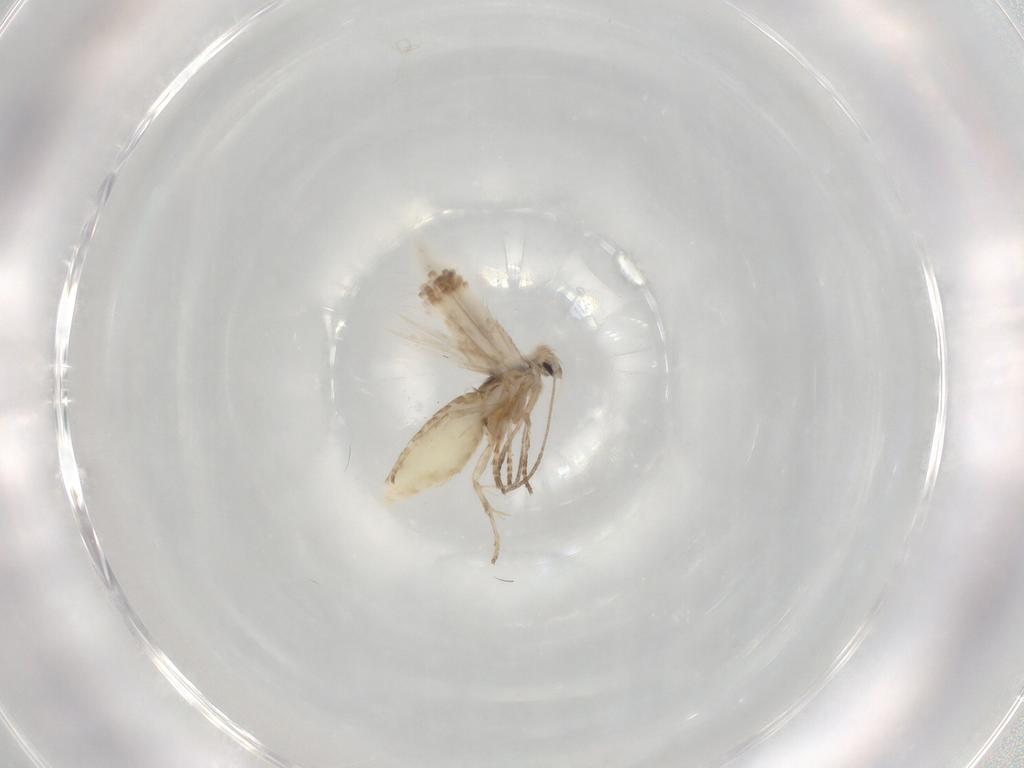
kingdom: Animalia
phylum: Arthropoda
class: Insecta
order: Lepidoptera
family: Depressariidae
